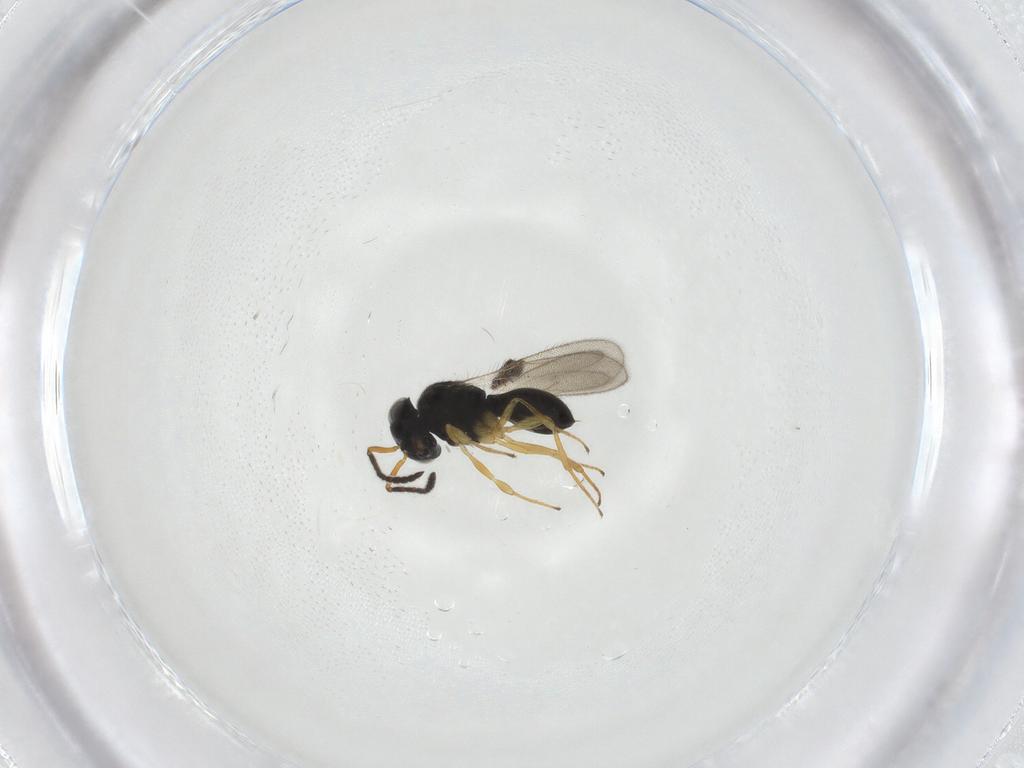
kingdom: Animalia
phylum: Arthropoda
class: Insecta
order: Hymenoptera
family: Scelionidae
